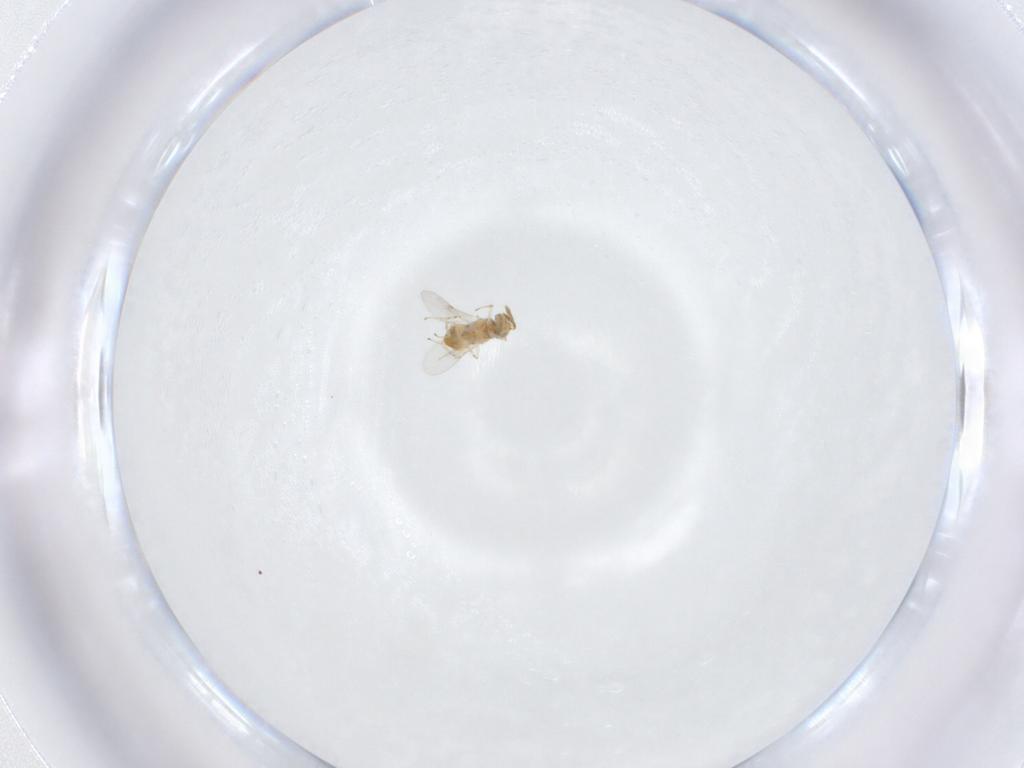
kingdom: Animalia
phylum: Arthropoda
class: Insecta
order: Hymenoptera
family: Encyrtidae
